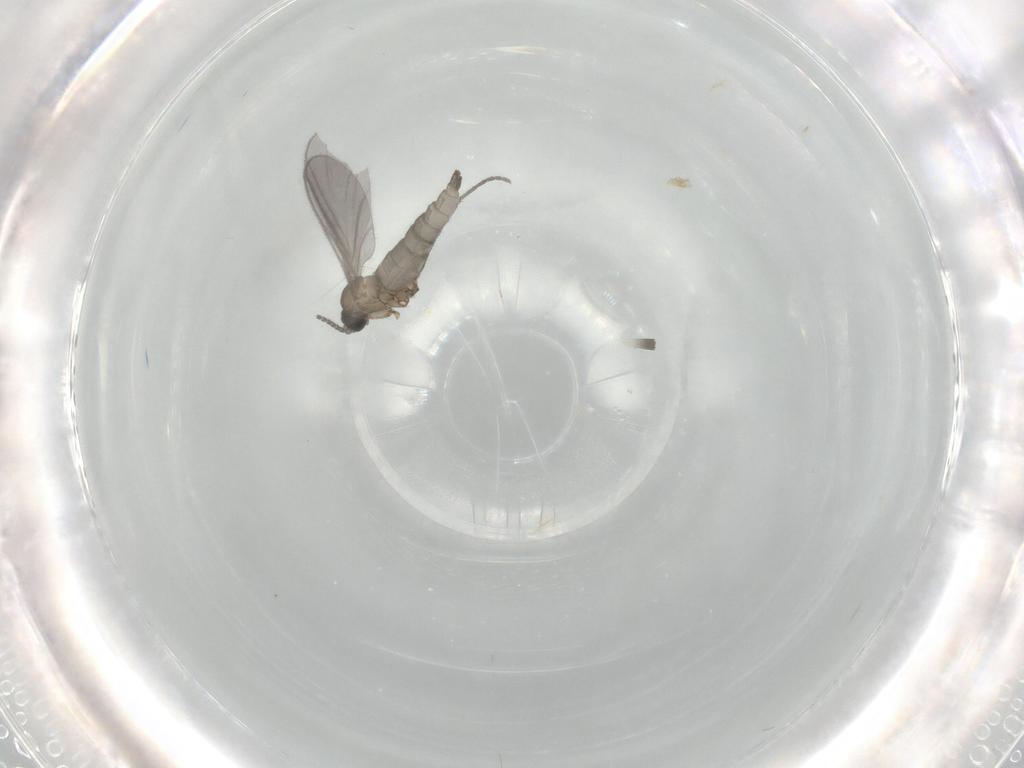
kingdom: Animalia
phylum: Arthropoda
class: Insecta
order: Diptera
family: Sciaridae
